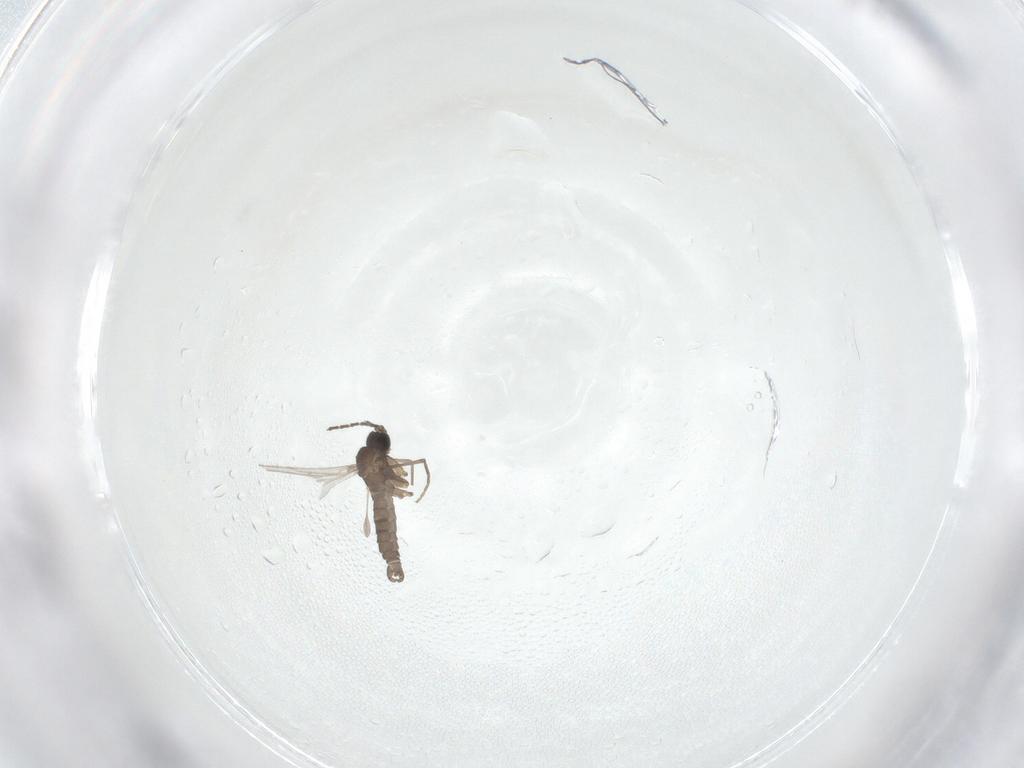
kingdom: Animalia
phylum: Arthropoda
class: Insecta
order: Diptera
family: Sciaridae
